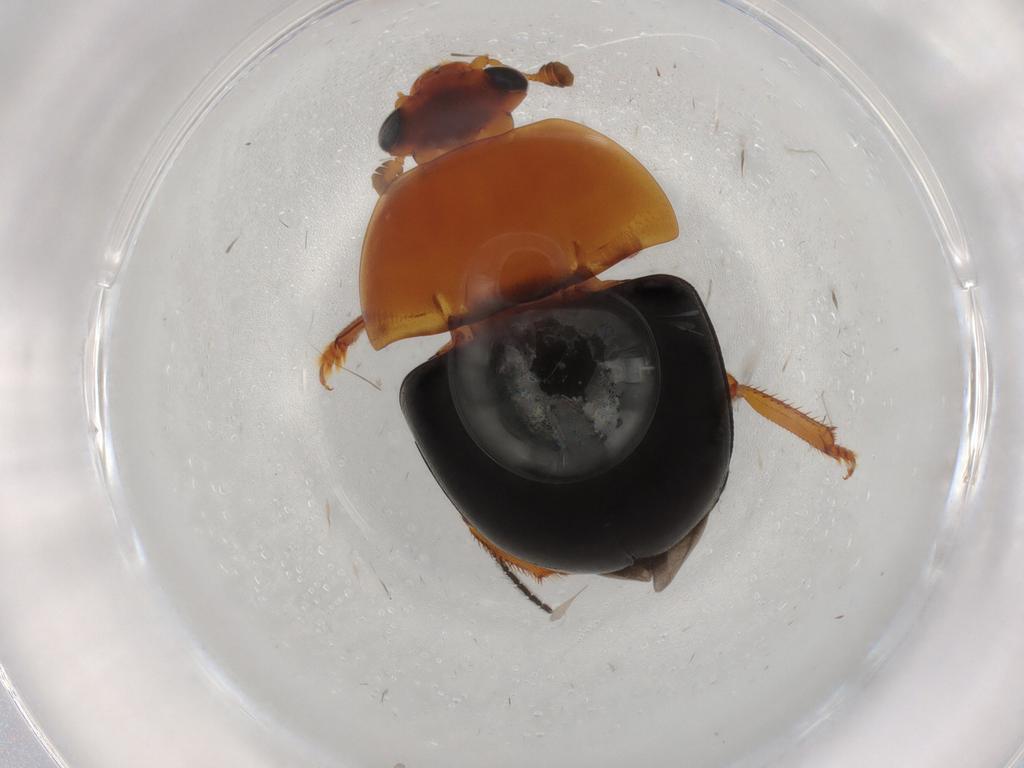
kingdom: Animalia
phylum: Arthropoda
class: Insecta
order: Coleoptera
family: Nitidulidae
